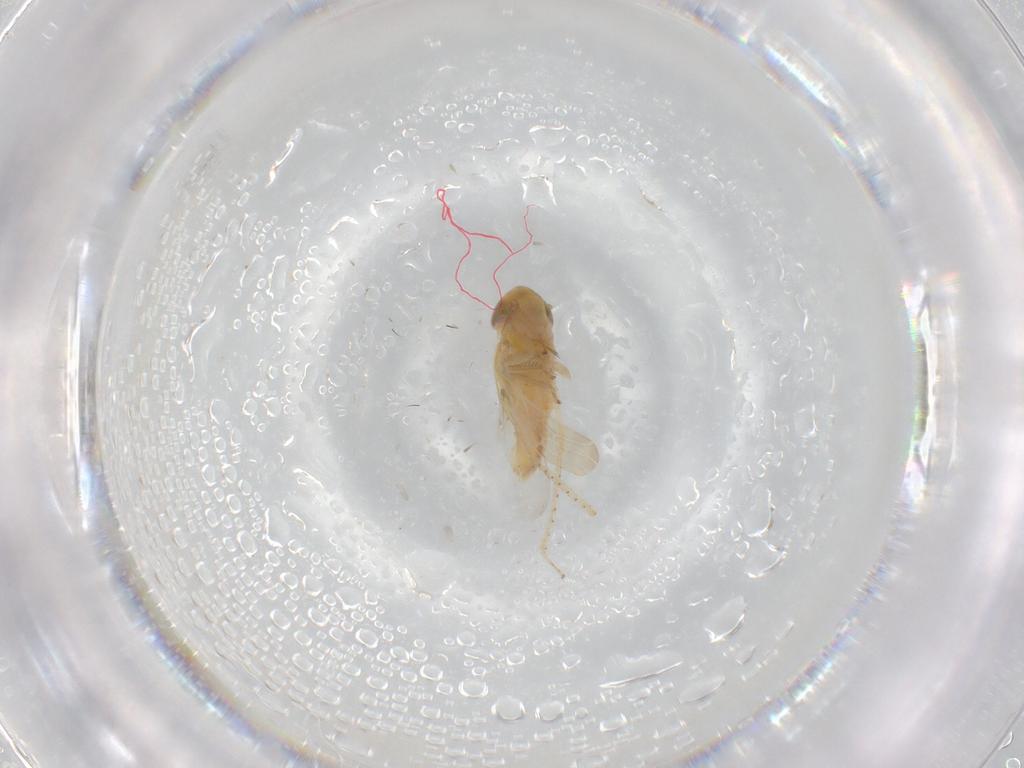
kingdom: Animalia
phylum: Arthropoda
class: Insecta
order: Hemiptera
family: Cicadellidae
